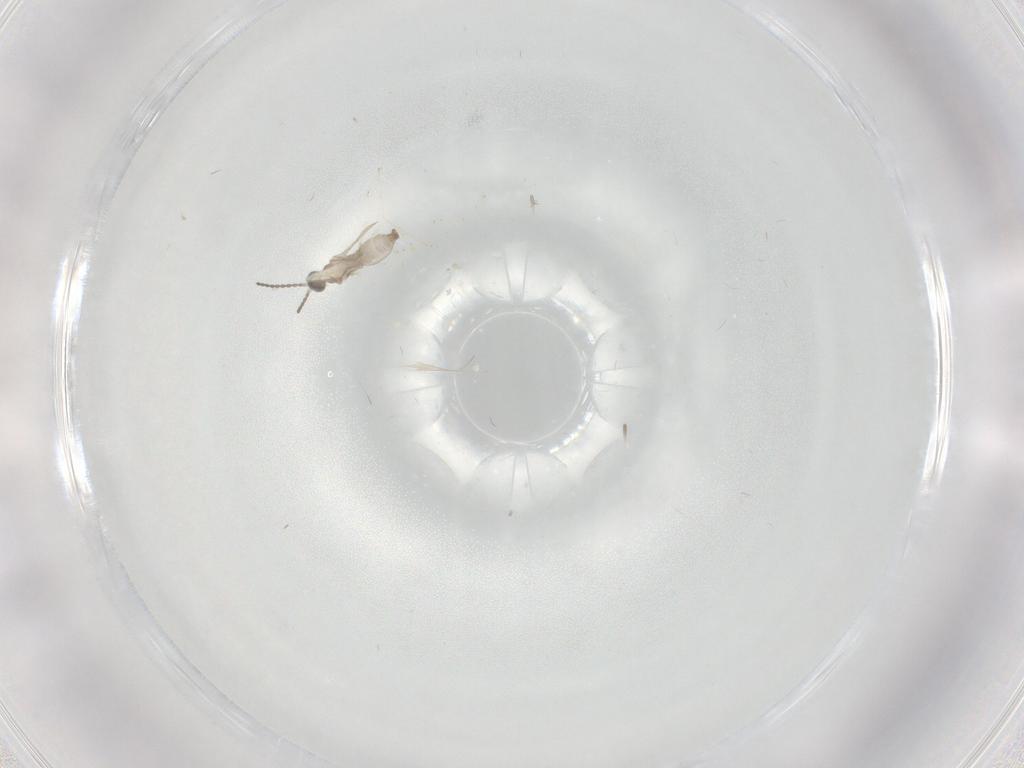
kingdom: Animalia
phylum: Arthropoda
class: Insecta
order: Diptera
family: Cecidomyiidae
